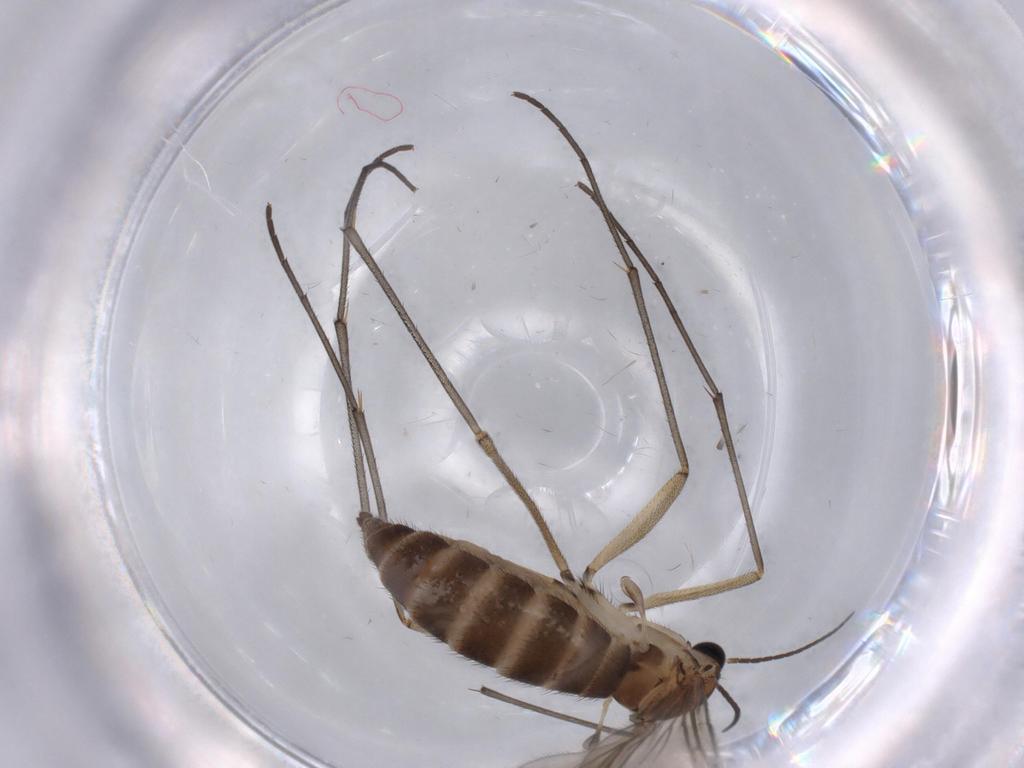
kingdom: Animalia
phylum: Arthropoda
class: Insecta
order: Diptera
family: Sciaridae
